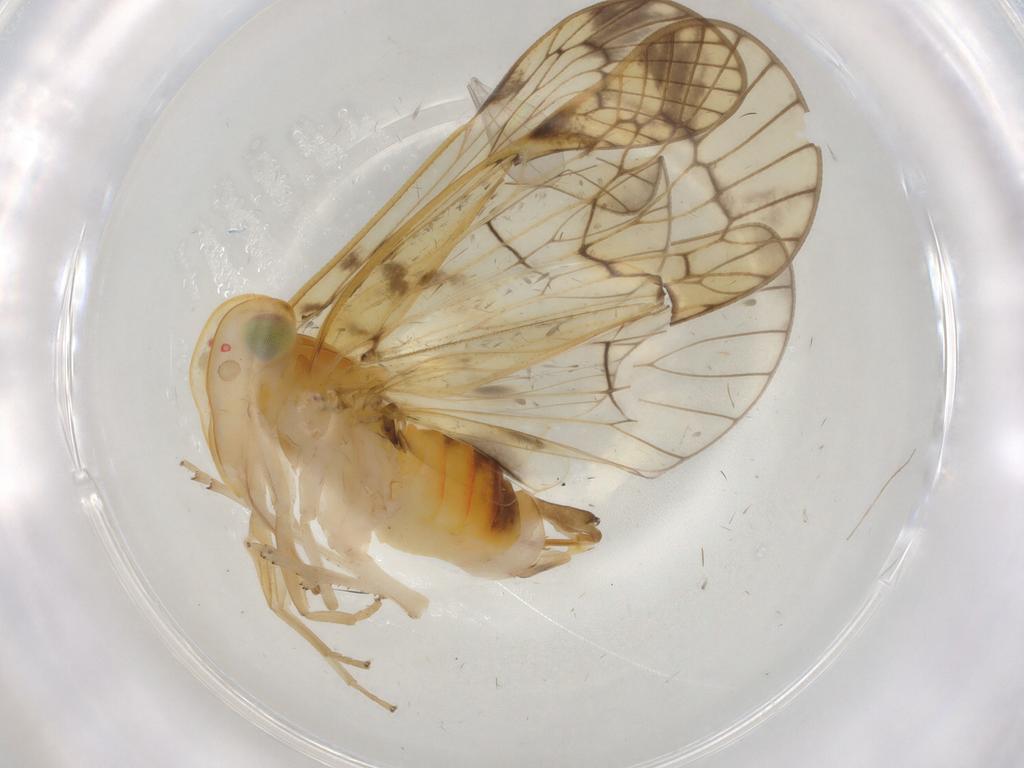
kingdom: Animalia
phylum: Arthropoda
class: Insecta
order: Hemiptera
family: Cixiidae
